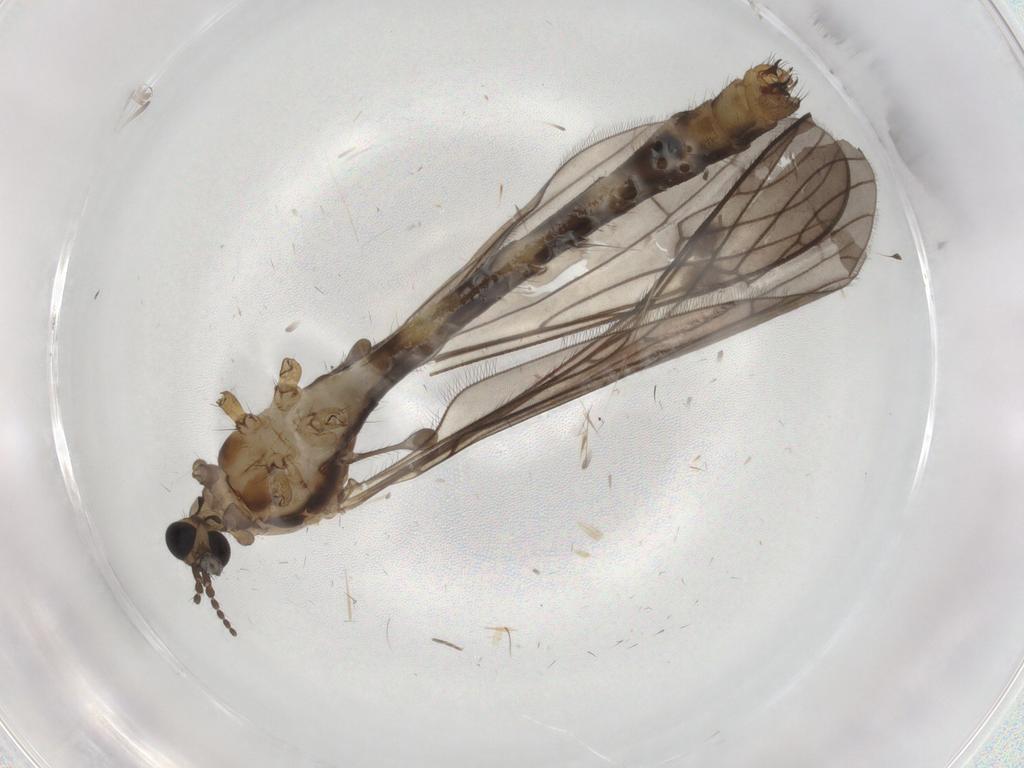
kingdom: Animalia
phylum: Arthropoda
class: Insecta
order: Diptera
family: Limoniidae
